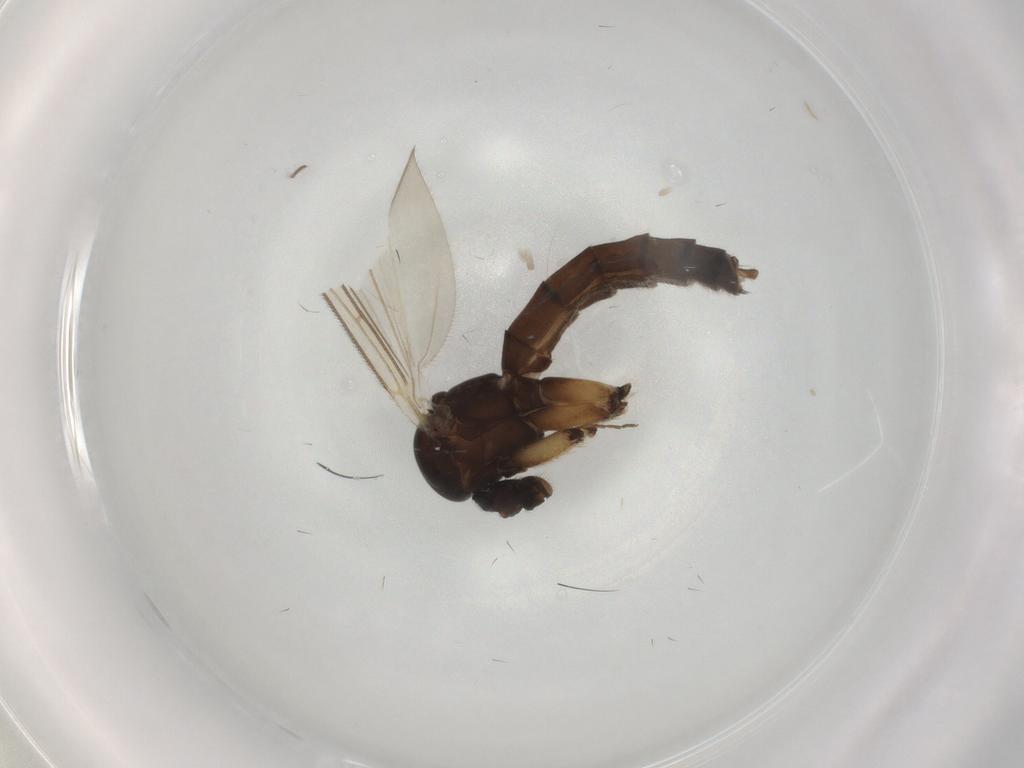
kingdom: Animalia
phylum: Arthropoda
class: Insecta
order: Diptera
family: Mycetophilidae
